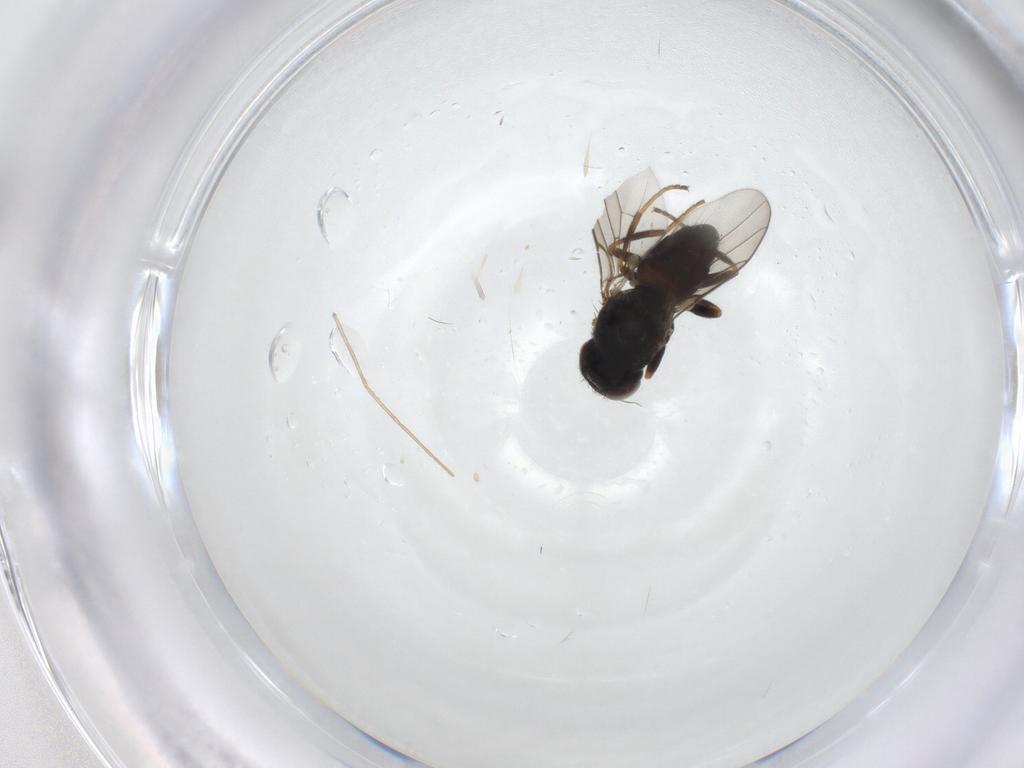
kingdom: Animalia
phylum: Arthropoda
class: Insecta
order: Diptera
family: Chloropidae
